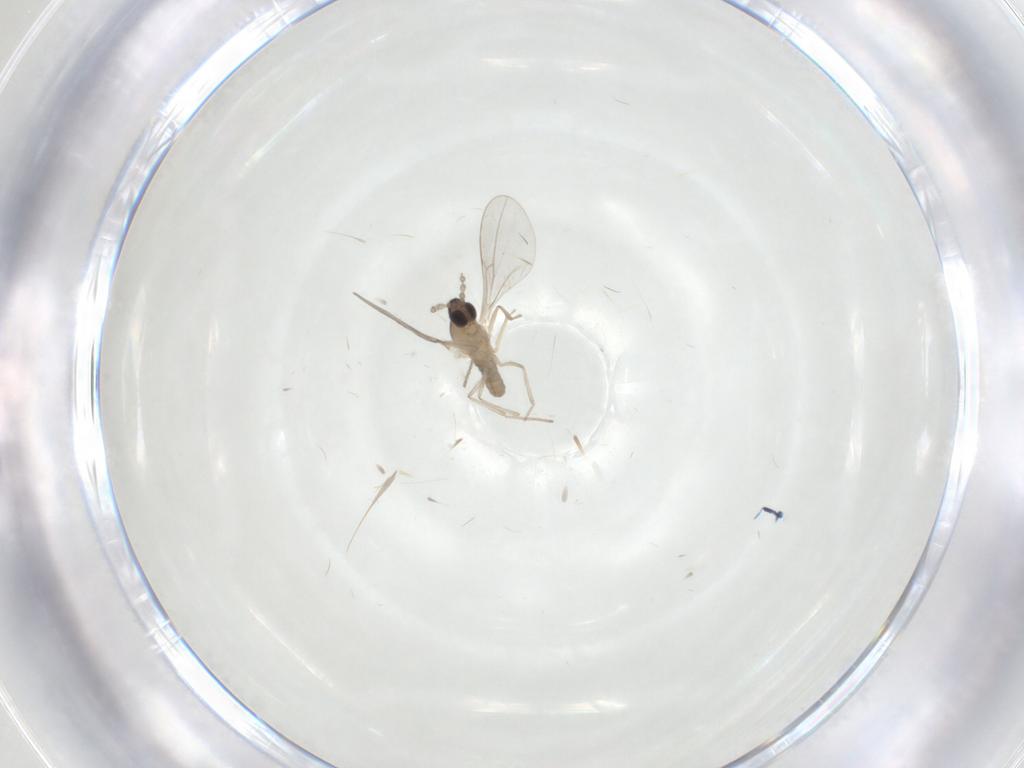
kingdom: Animalia
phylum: Arthropoda
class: Insecta
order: Diptera
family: Cecidomyiidae
